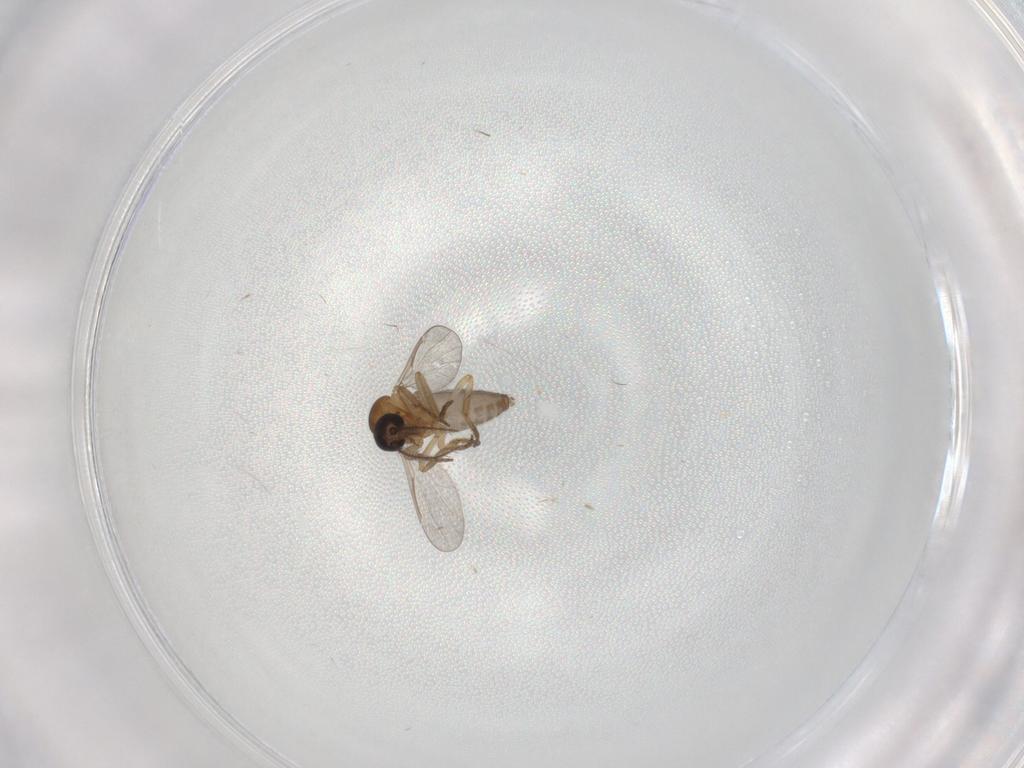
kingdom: Animalia
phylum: Arthropoda
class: Insecta
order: Diptera
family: Ceratopogonidae
